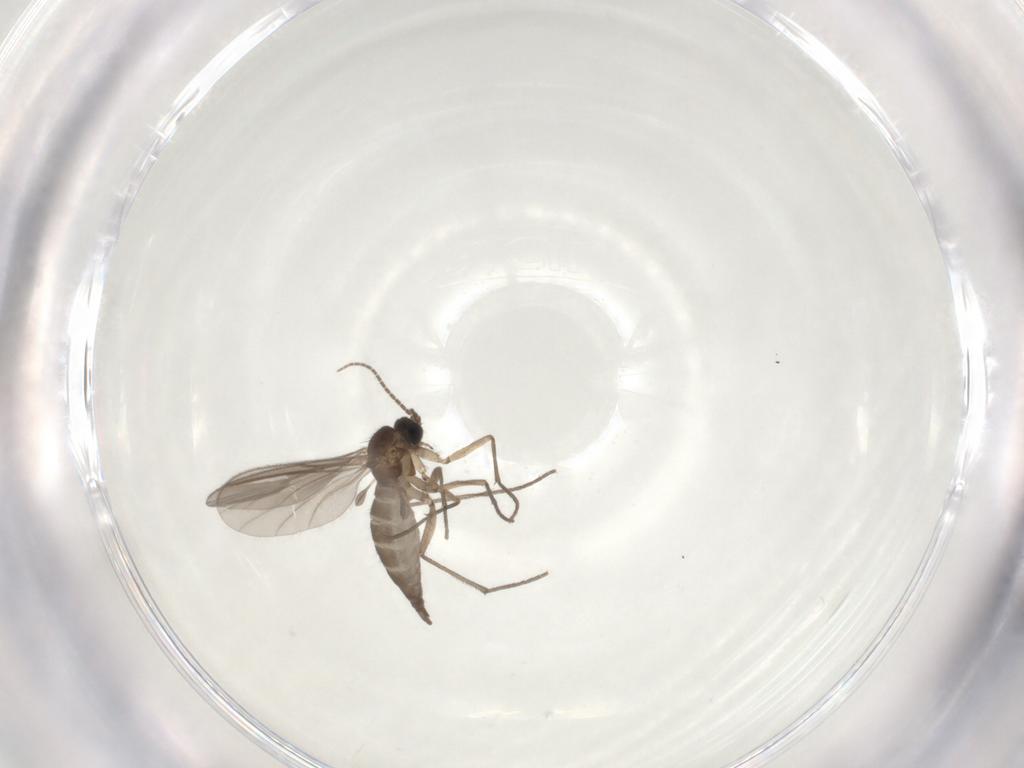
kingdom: Animalia
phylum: Arthropoda
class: Insecta
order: Diptera
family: Sciaridae
